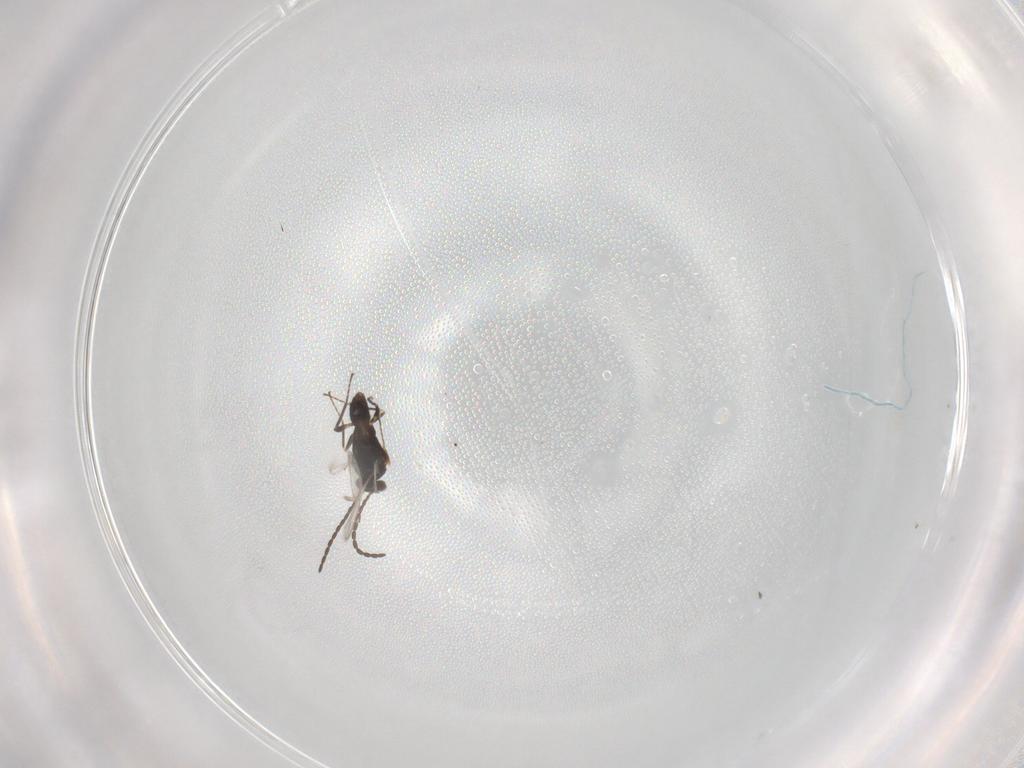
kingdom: Animalia
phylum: Arthropoda
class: Insecta
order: Hymenoptera
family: Mymaridae
